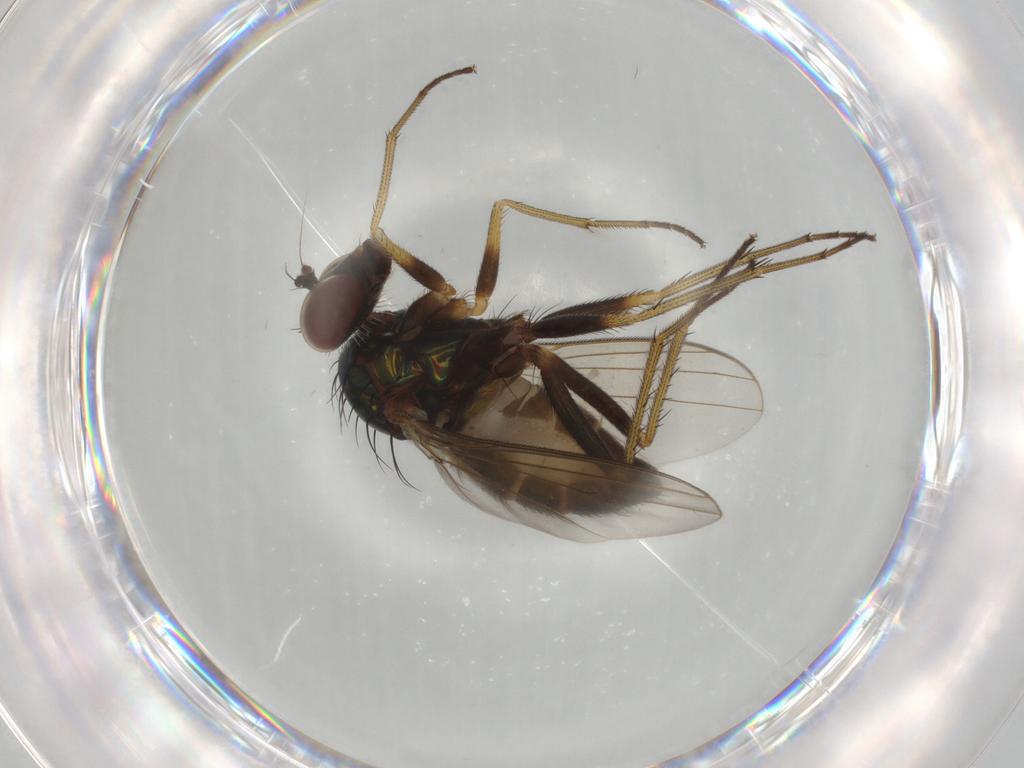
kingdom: Animalia
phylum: Arthropoda
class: Insecta
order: Diptera
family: Dolichopodidae
